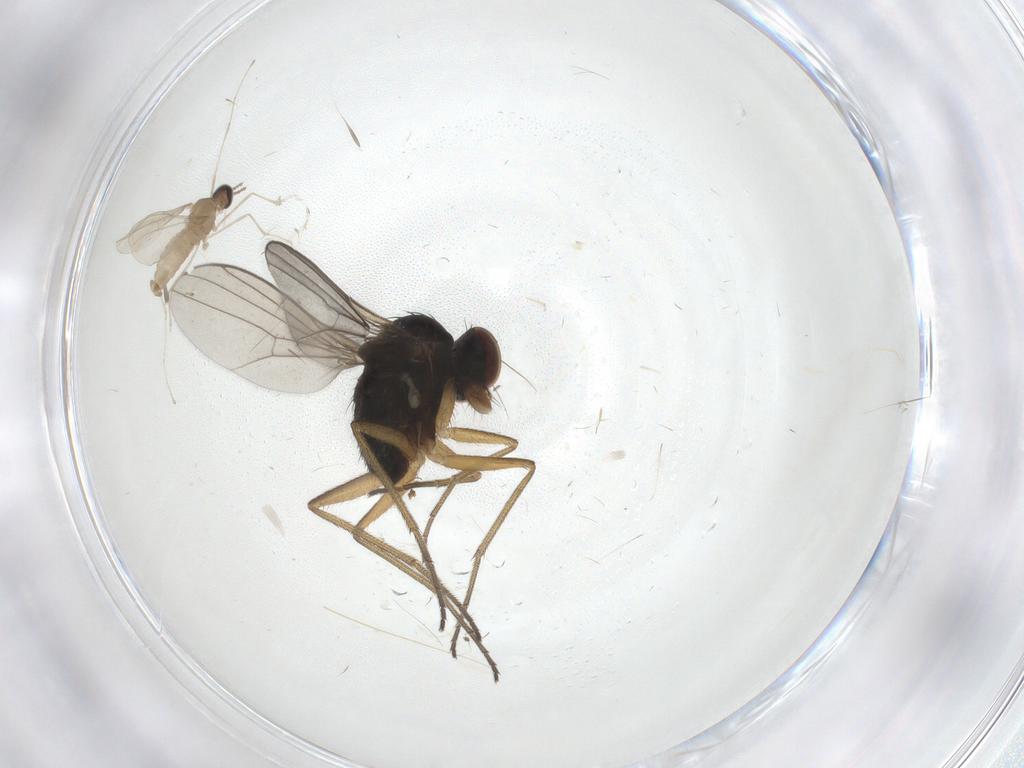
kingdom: Animalia
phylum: Arthropoda
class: Insecta
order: Diptera
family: Dolichopodidae
